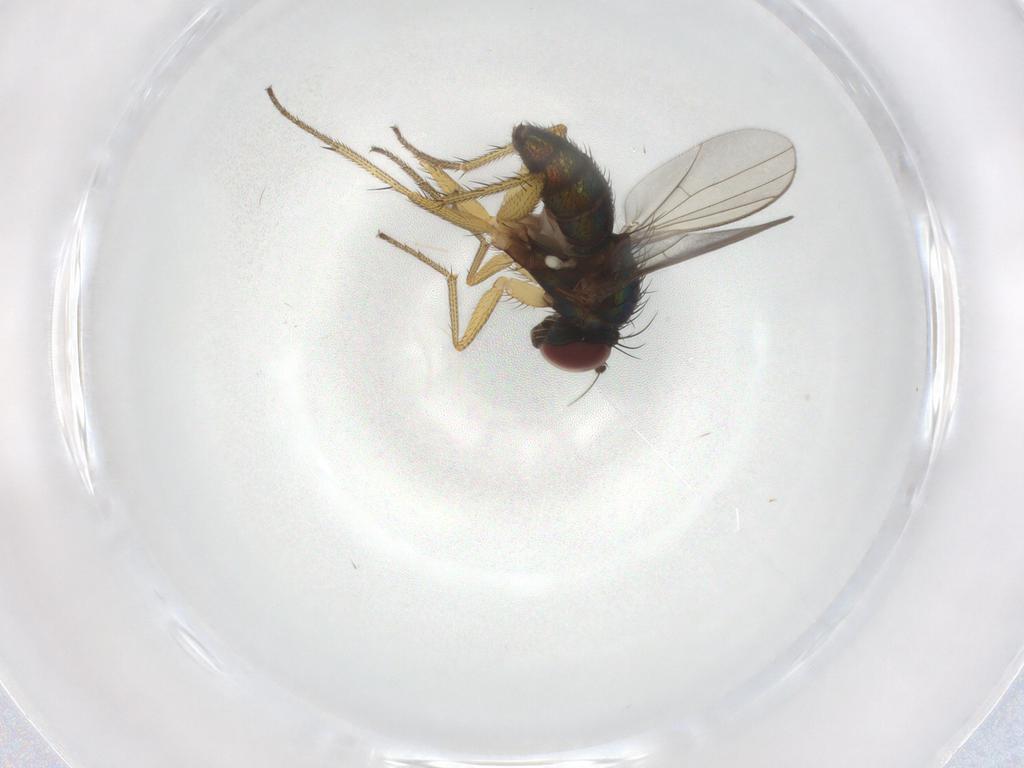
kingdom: Animalia
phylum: Arthropoda
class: Insecta
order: Diptera
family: Dolichopodidae
